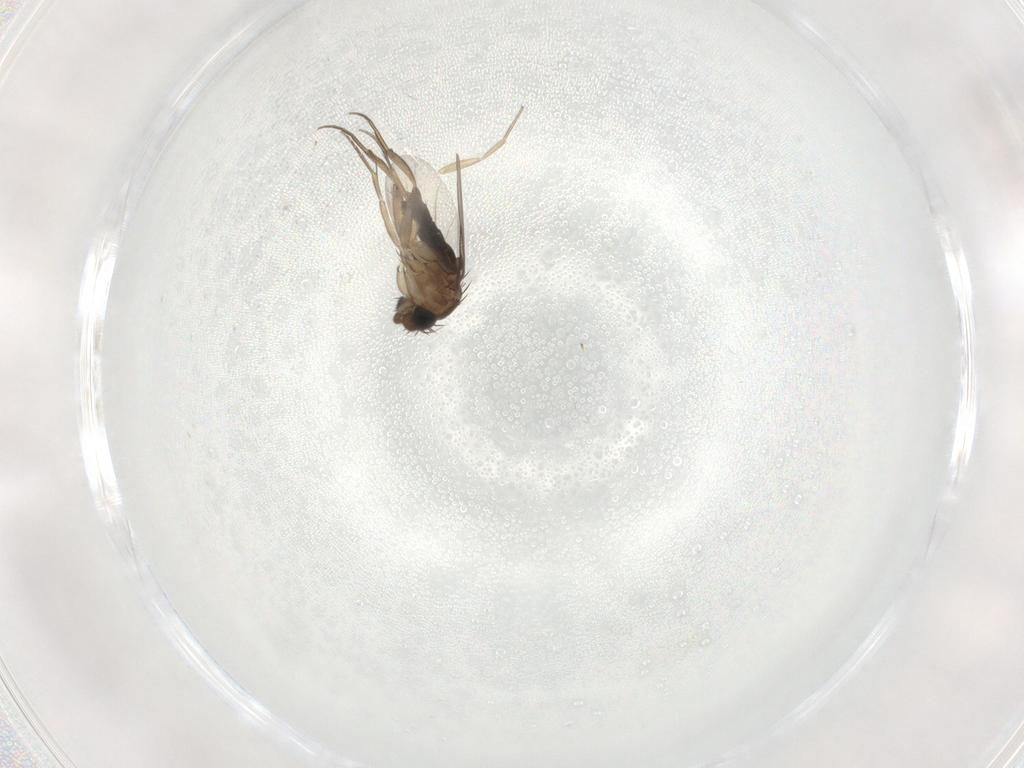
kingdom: Animalia
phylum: Arthropoda
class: Insecta
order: Diptera
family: Phoridae
